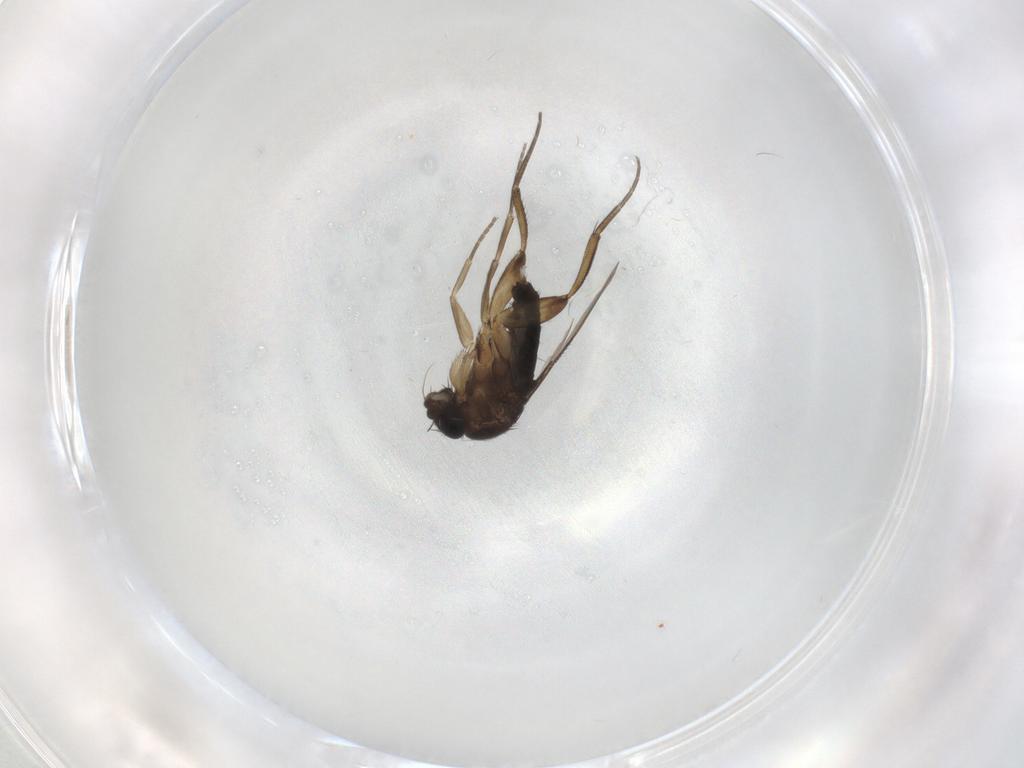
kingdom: Animalia
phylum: Arthropoda
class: Insecta
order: Diptera
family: Phoridae
